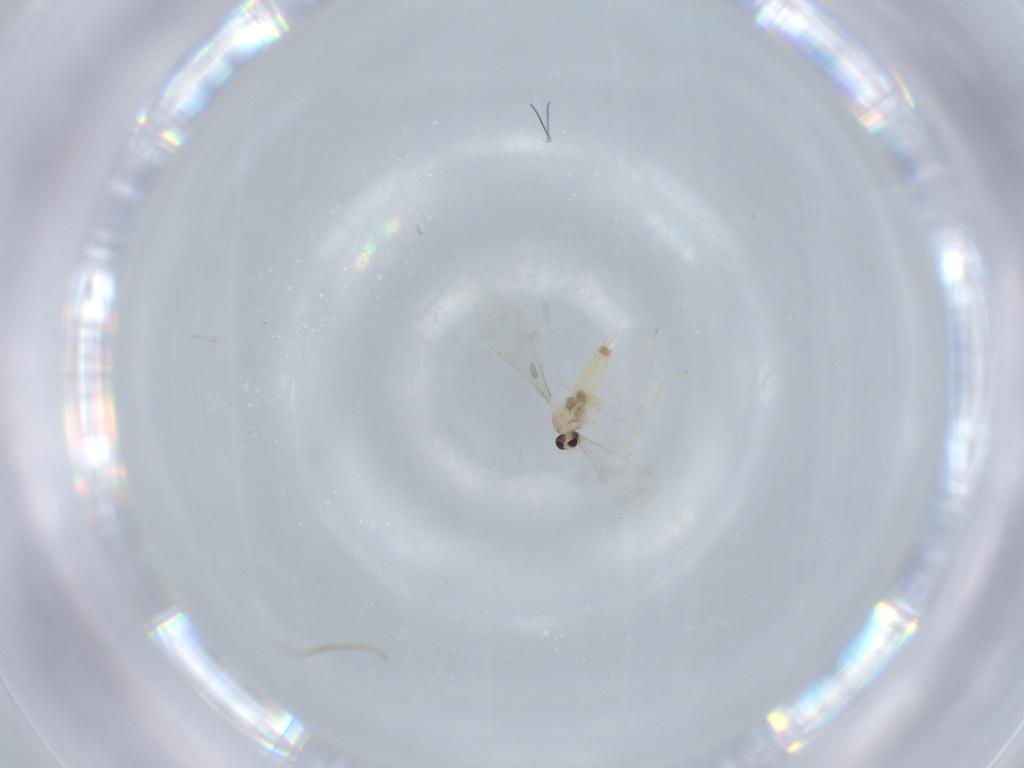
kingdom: Animalia
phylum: Arthropoda
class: Insecta
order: Diptera
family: Cecidomyiidae
